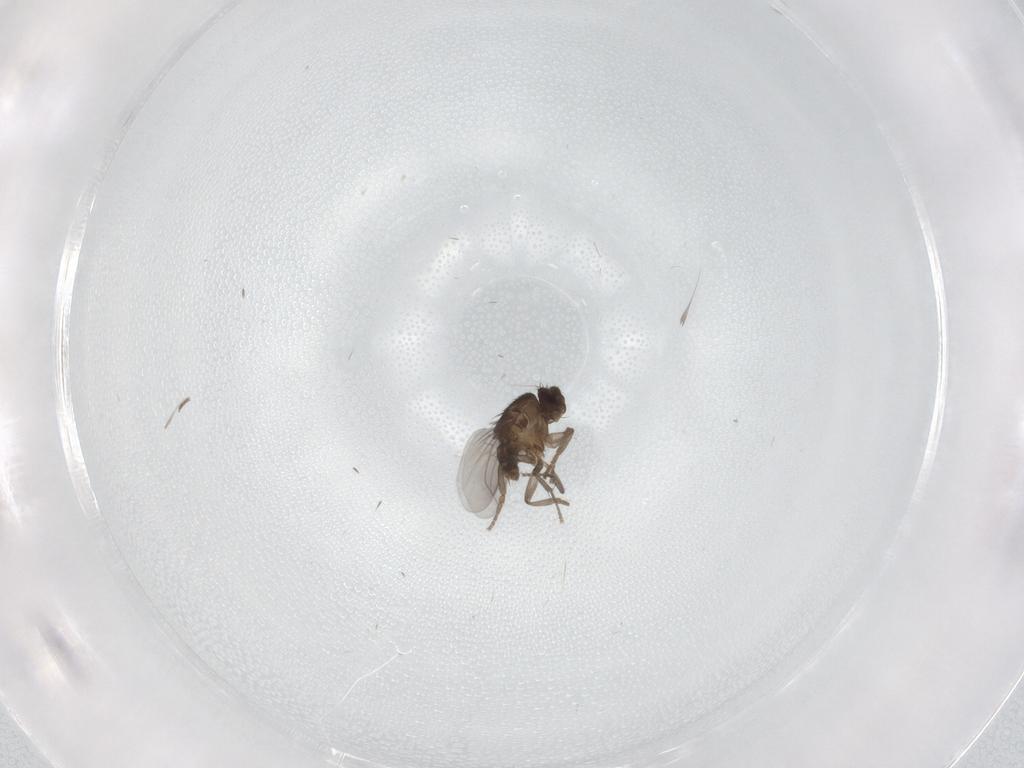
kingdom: Animalia
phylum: Arthropoda
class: Insecta
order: Diptera
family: Sphaeroceridae
